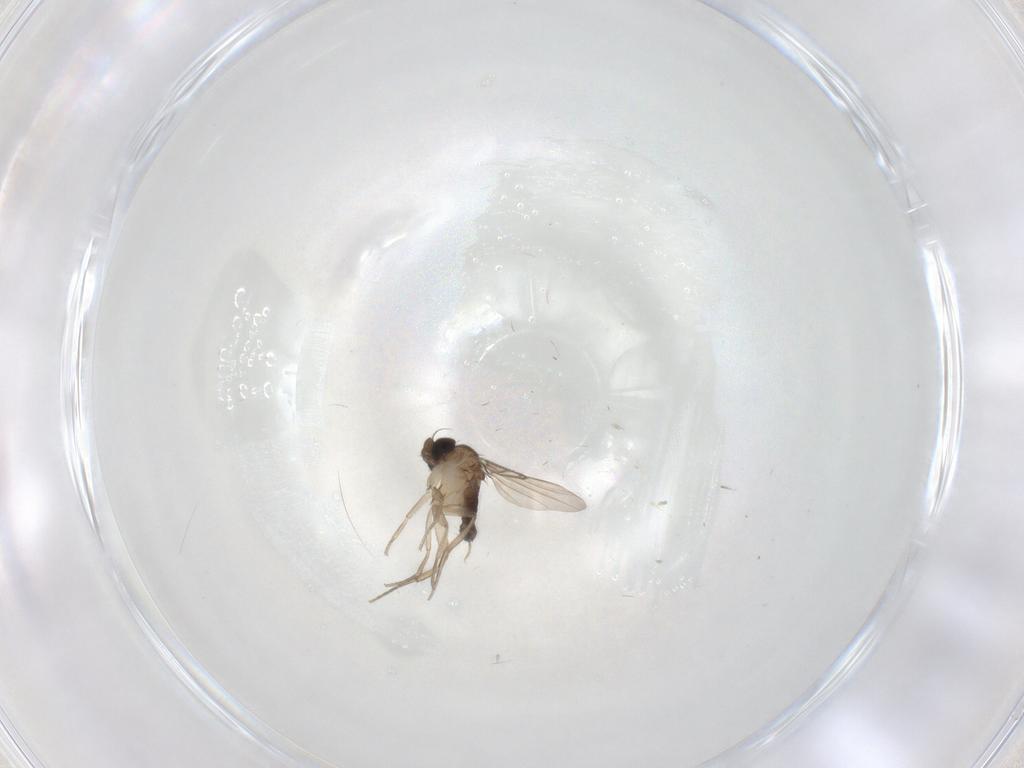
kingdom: Animalia
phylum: Arthropoda
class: Insecta
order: Diptera
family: Phoridae
